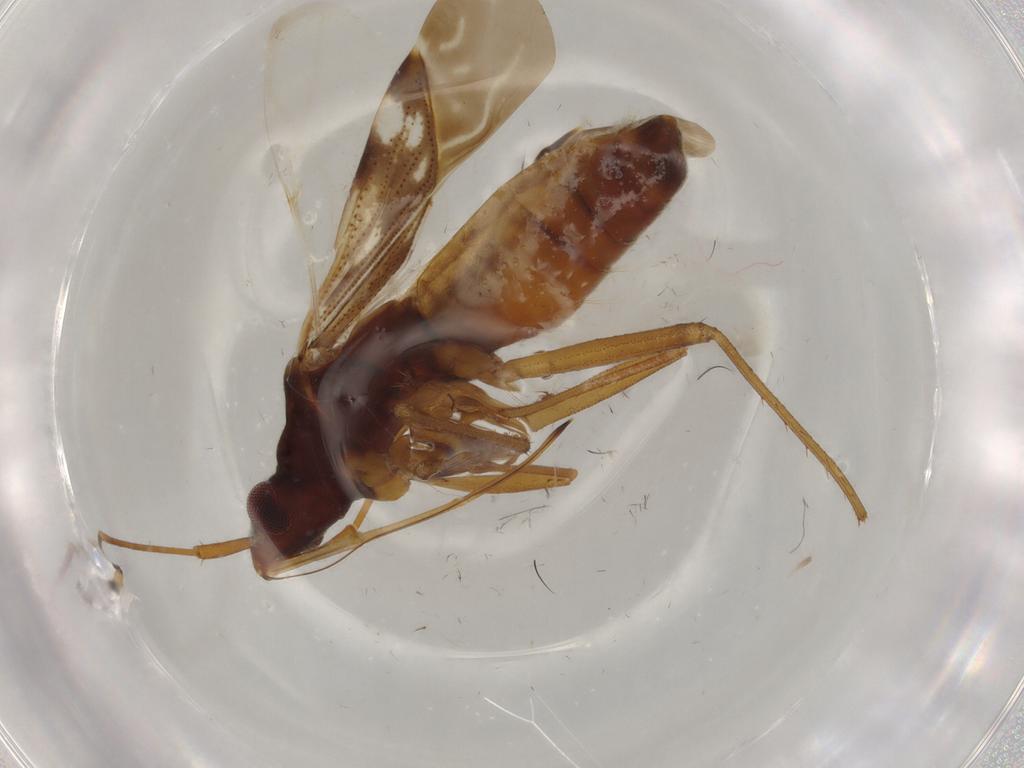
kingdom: Animalia
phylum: Arthropoda
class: Insecta
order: Hemiptera
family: Rhyparochromidae
